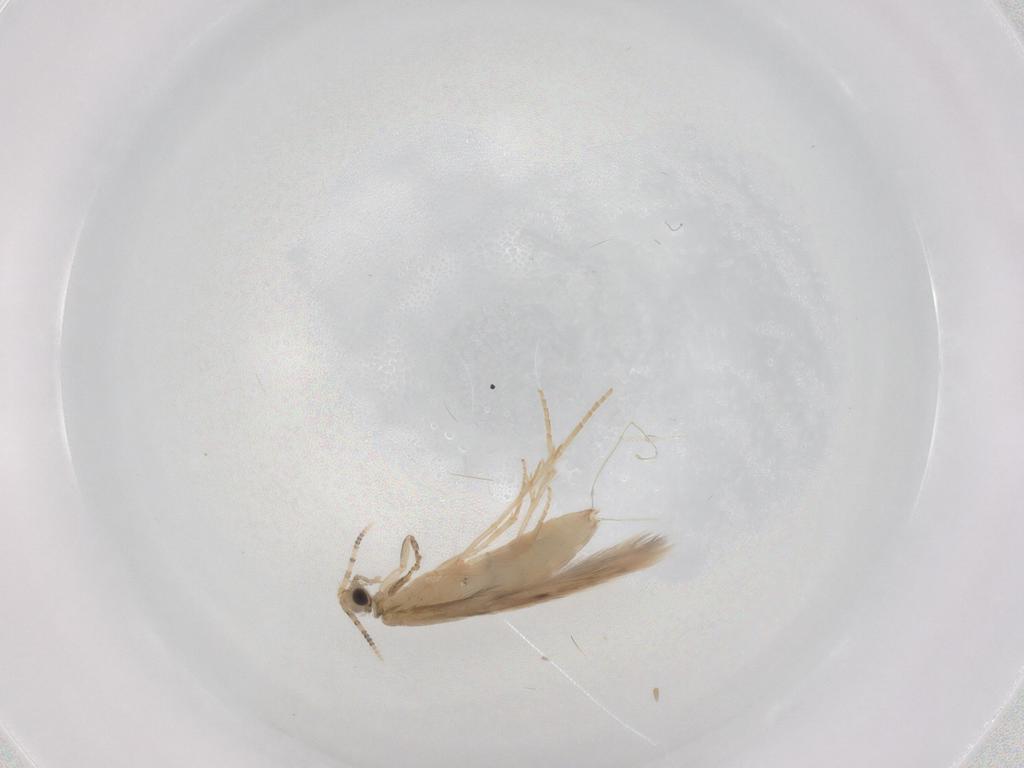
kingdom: Animalia
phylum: Arthropoda
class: Insecta
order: Trichoptera
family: Hydroptilidae
